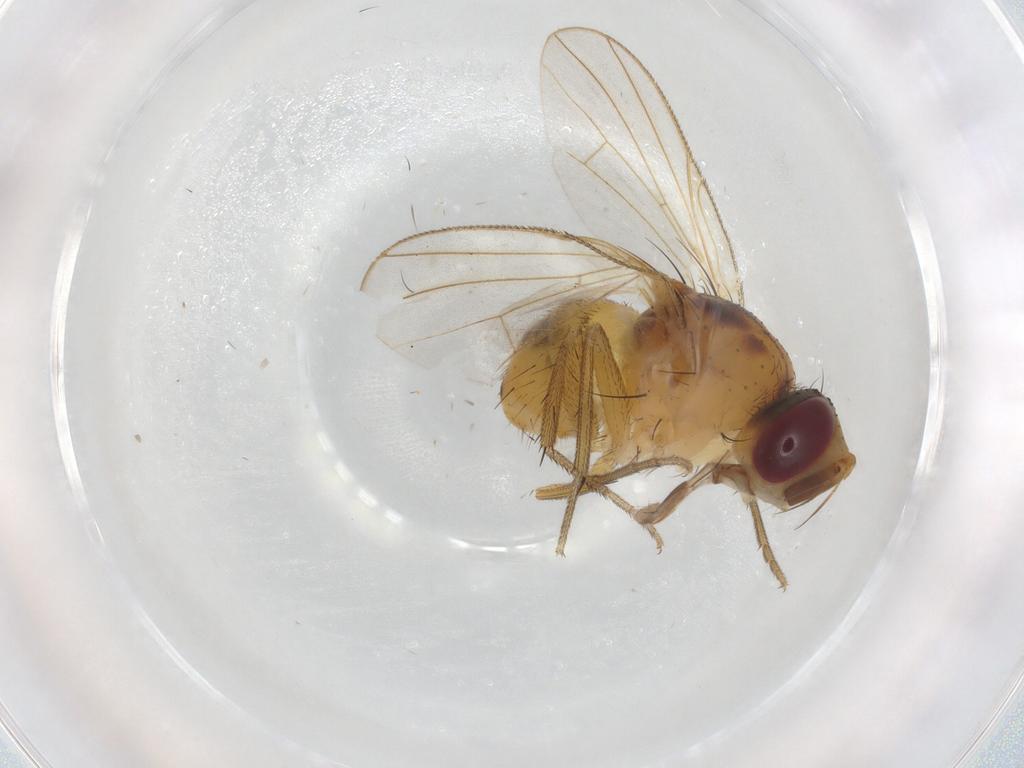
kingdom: Animalia
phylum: Arthropoda
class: Insecta
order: Diptera
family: Muscidae
